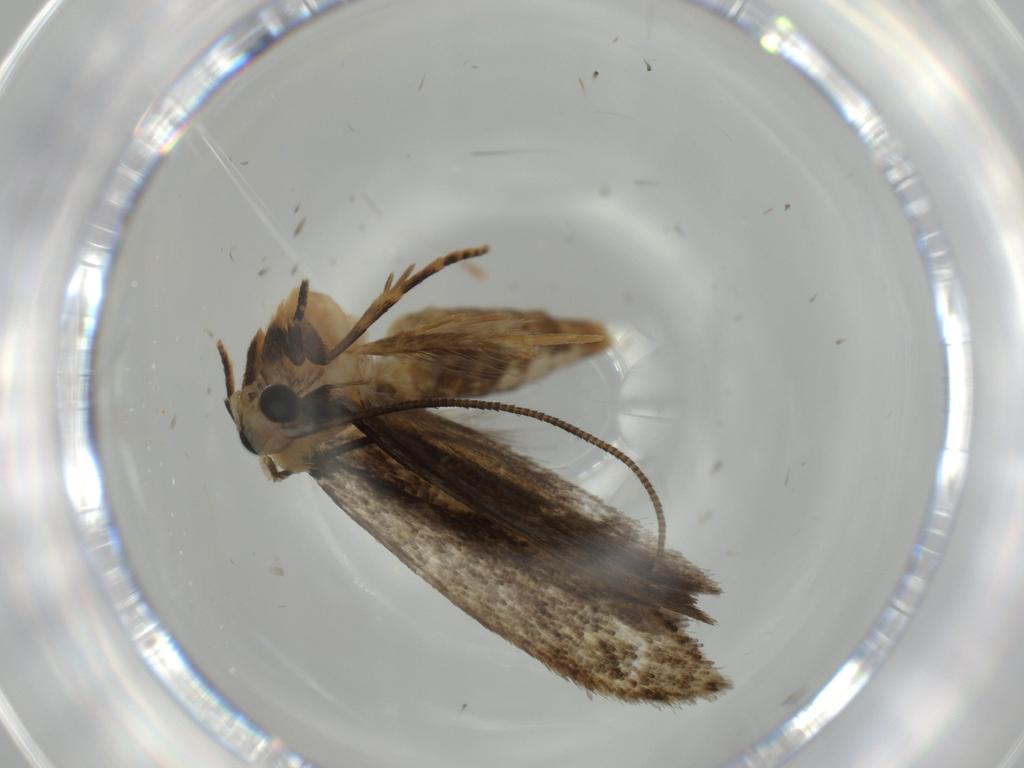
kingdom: Animalia
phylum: Arthropoda
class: Insecta
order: Lepidoptera
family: Tineidae
